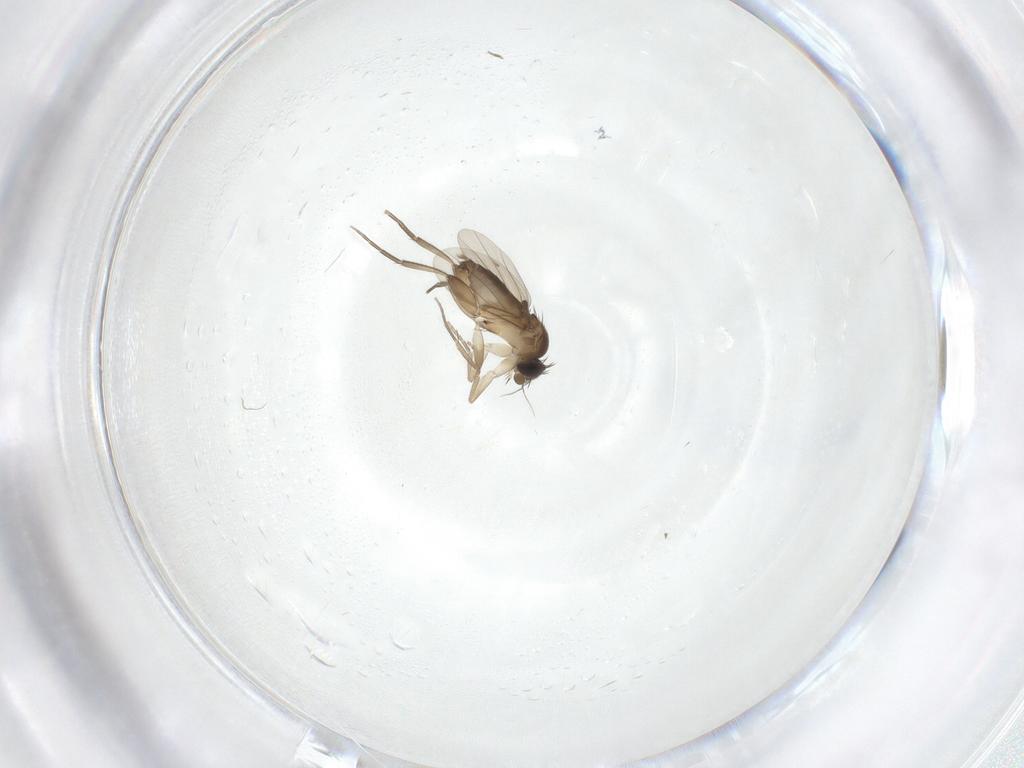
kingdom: Animalia
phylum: Arthropoda
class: Insecta
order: Diptera
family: Phoridae
